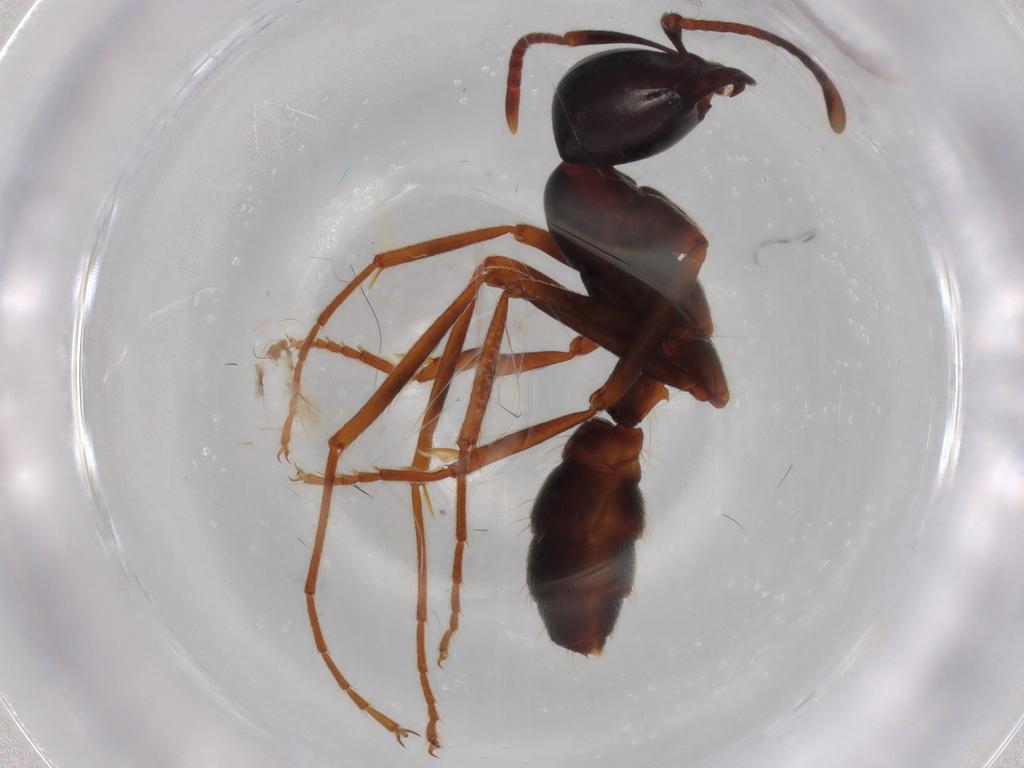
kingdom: Animalia
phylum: Arthropoda
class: Insecta
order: Hymenoptera
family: Formicidae
